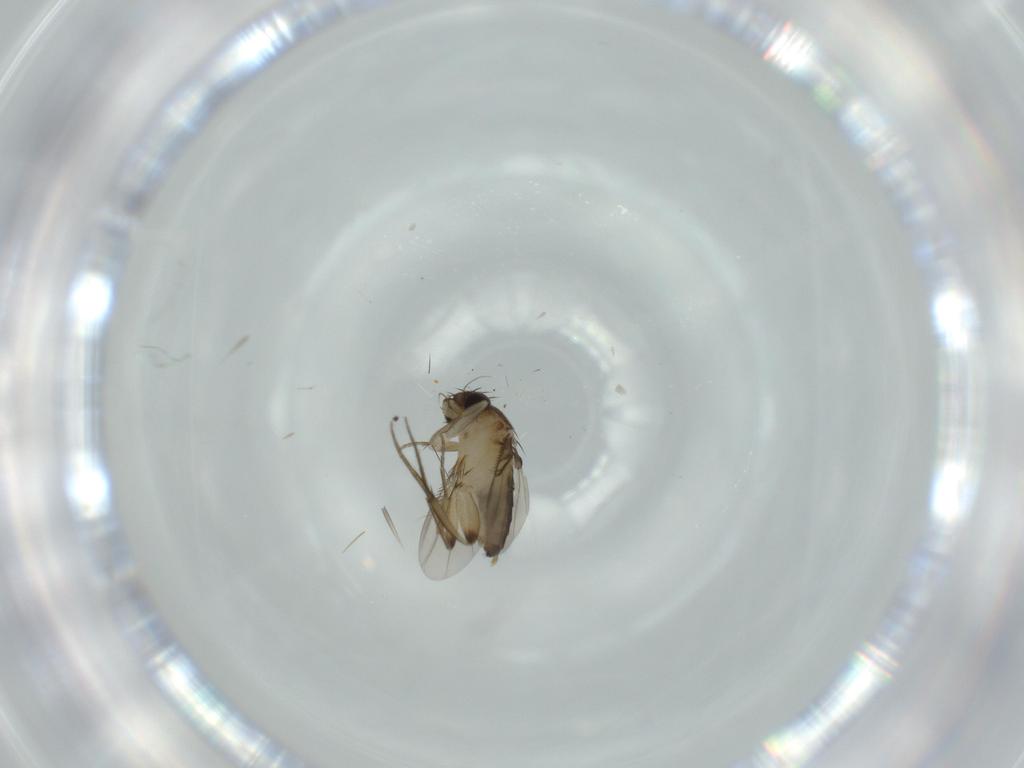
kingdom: Animalia
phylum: Arthropoda
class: Insecta
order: Diptera
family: Phoridae
